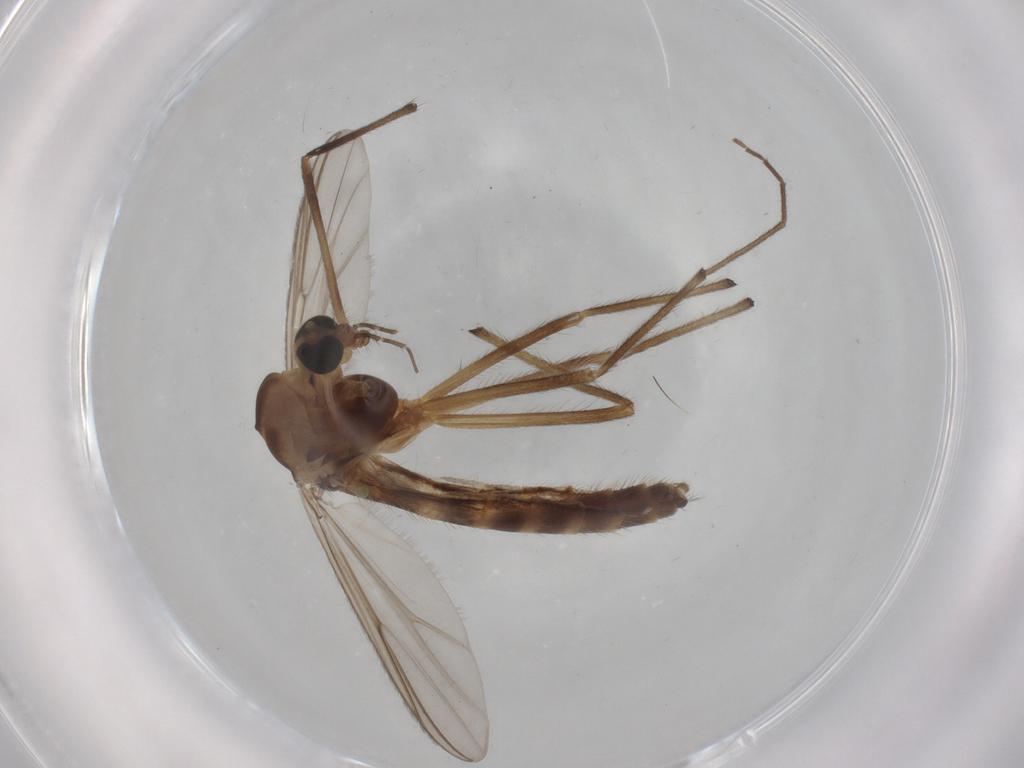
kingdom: Animalia
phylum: Arthropoda
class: Insecta
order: Diptera
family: Chironomidae
